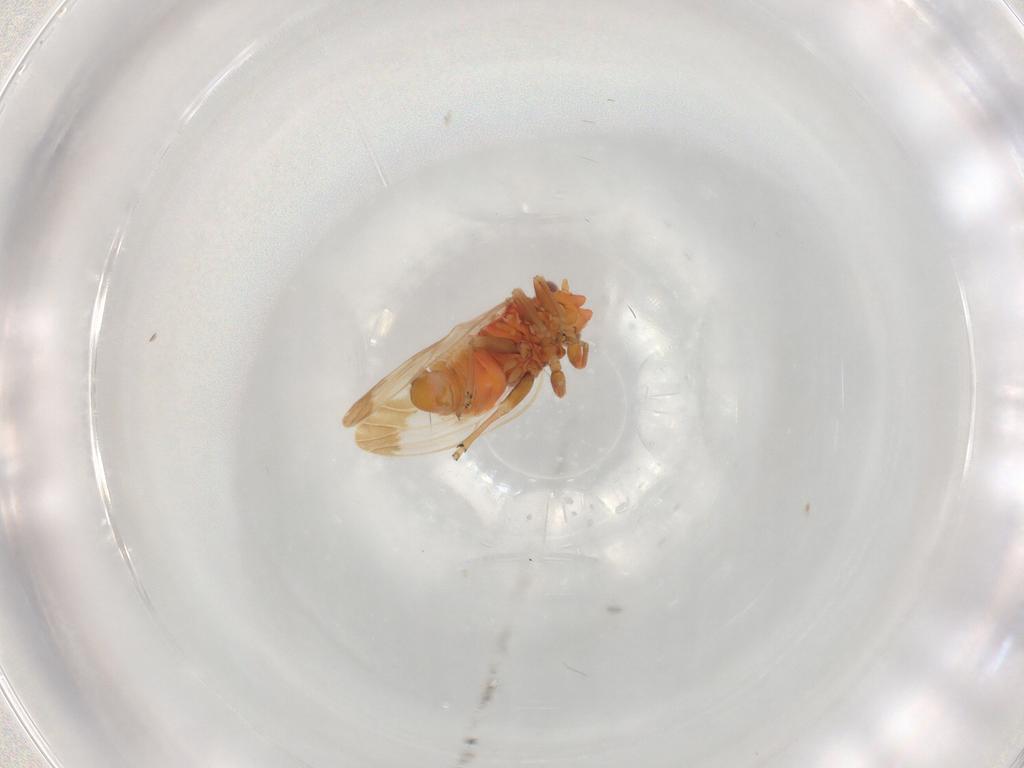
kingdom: Animalia
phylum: Arthropoda
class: Insecta
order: Hemiptera
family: Psyllidae
